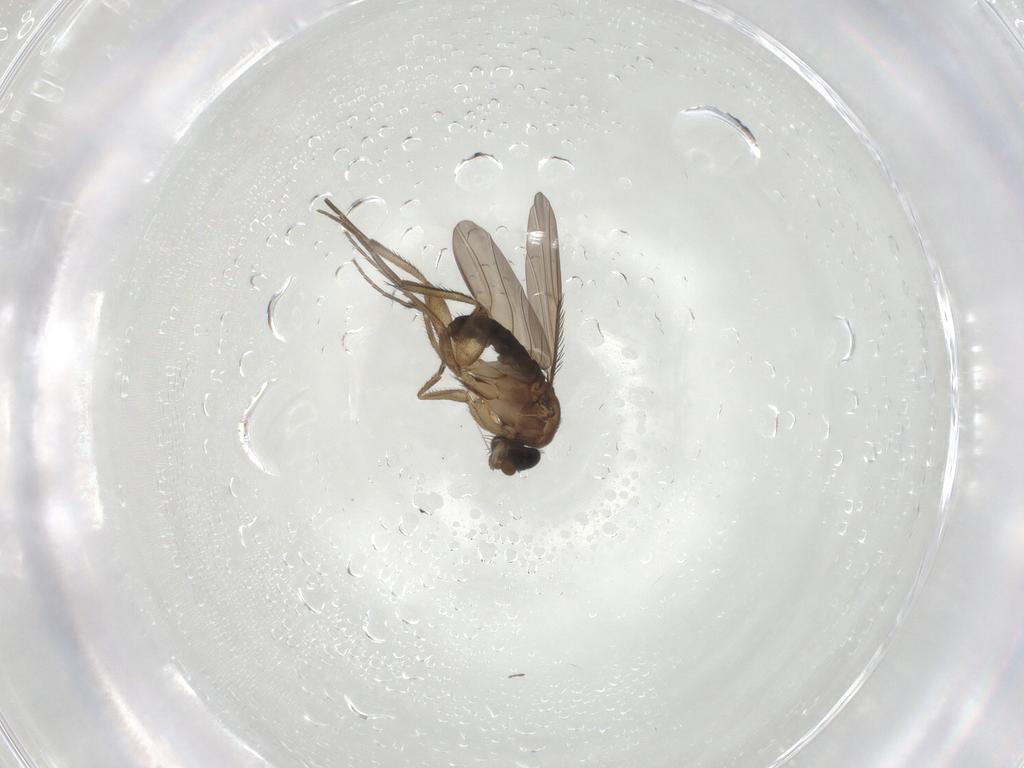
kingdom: Animalia
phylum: Arthropoda
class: Insecta
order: Diptera
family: Phoridae
